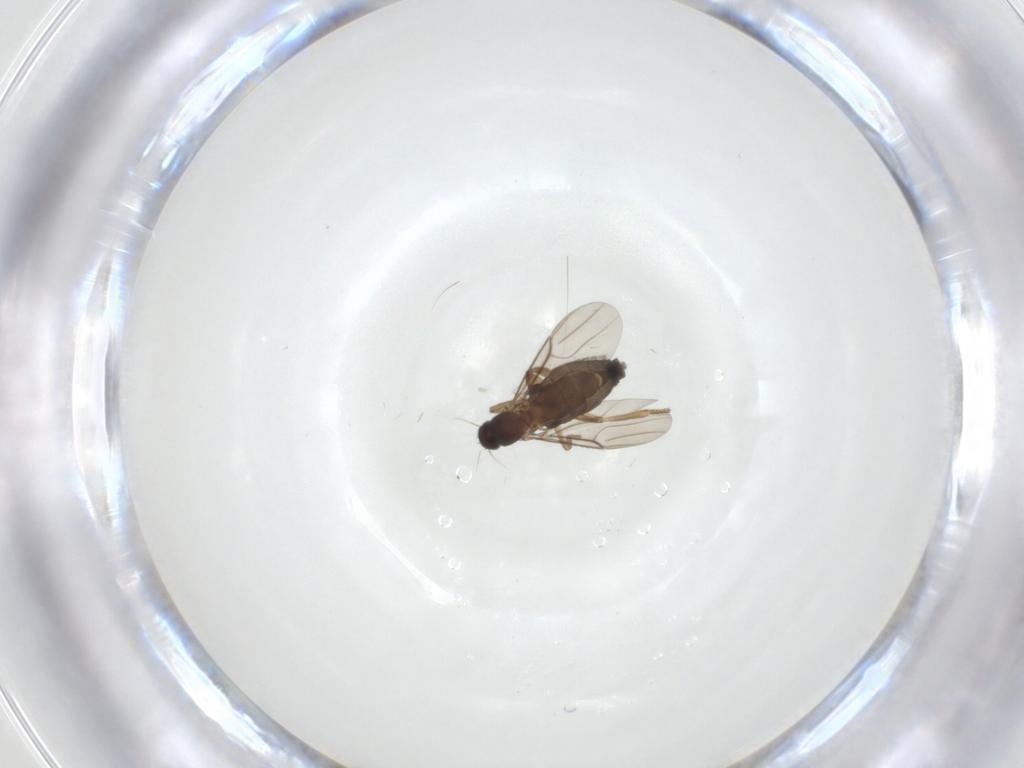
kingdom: Animalia
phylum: Arthropoda
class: Insecta
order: Diptera
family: Phoridae
